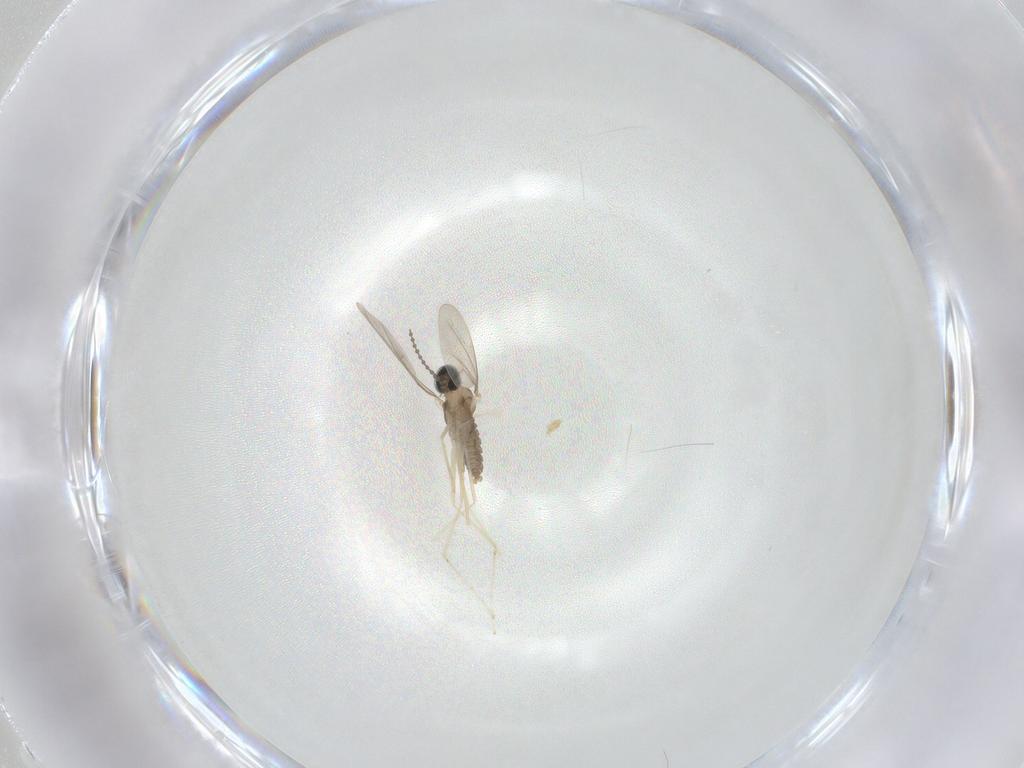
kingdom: Animalia
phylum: Arthropoda
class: Insecta
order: Diptera
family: Cecidomyiidae
